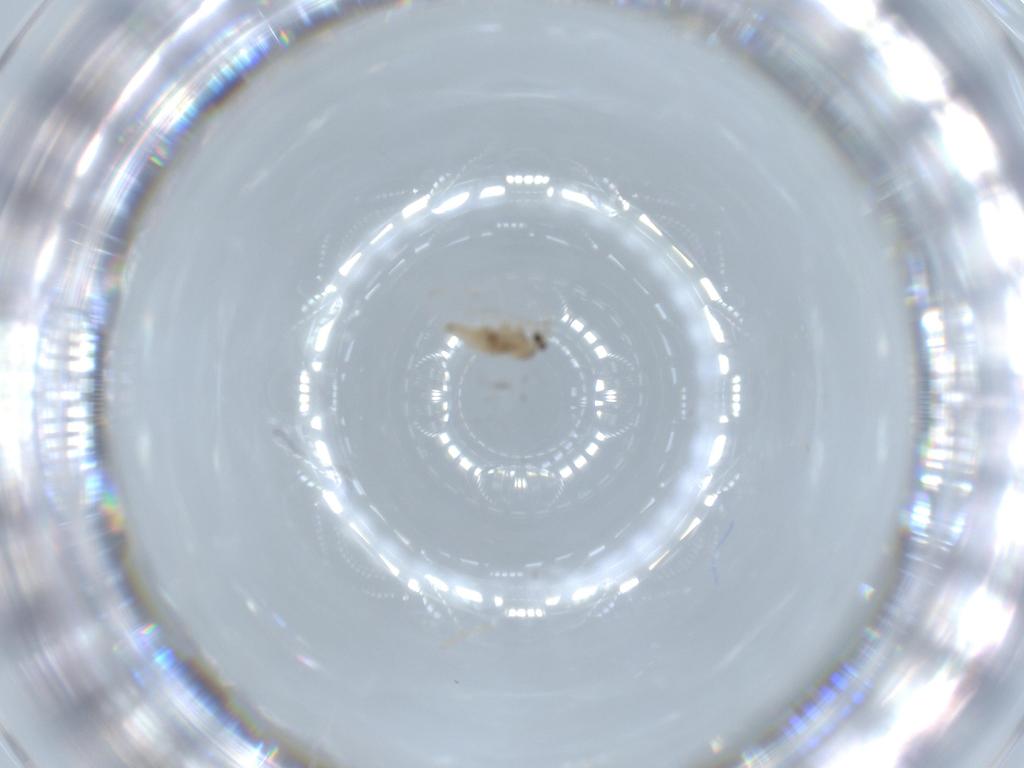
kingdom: Animalia
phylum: Arthropoda
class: Insecta
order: Diptera
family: Cecidomyiidae
